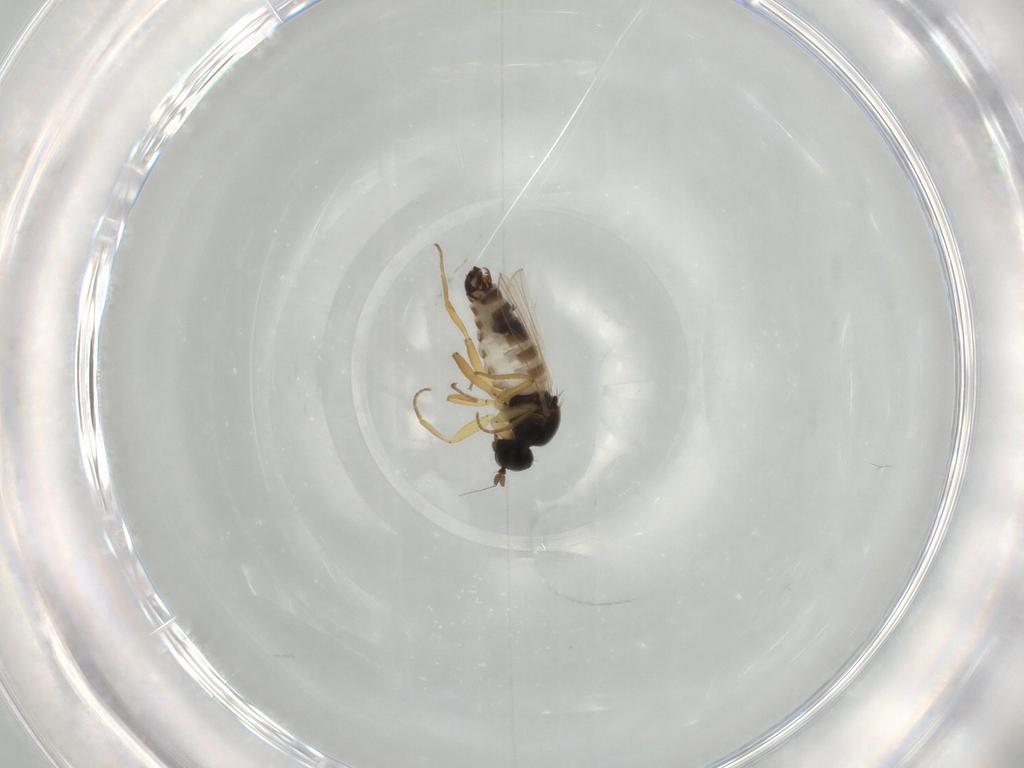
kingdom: Animalia
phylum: Arthropoda
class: Insecta
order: Diptera
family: Hybotidae
